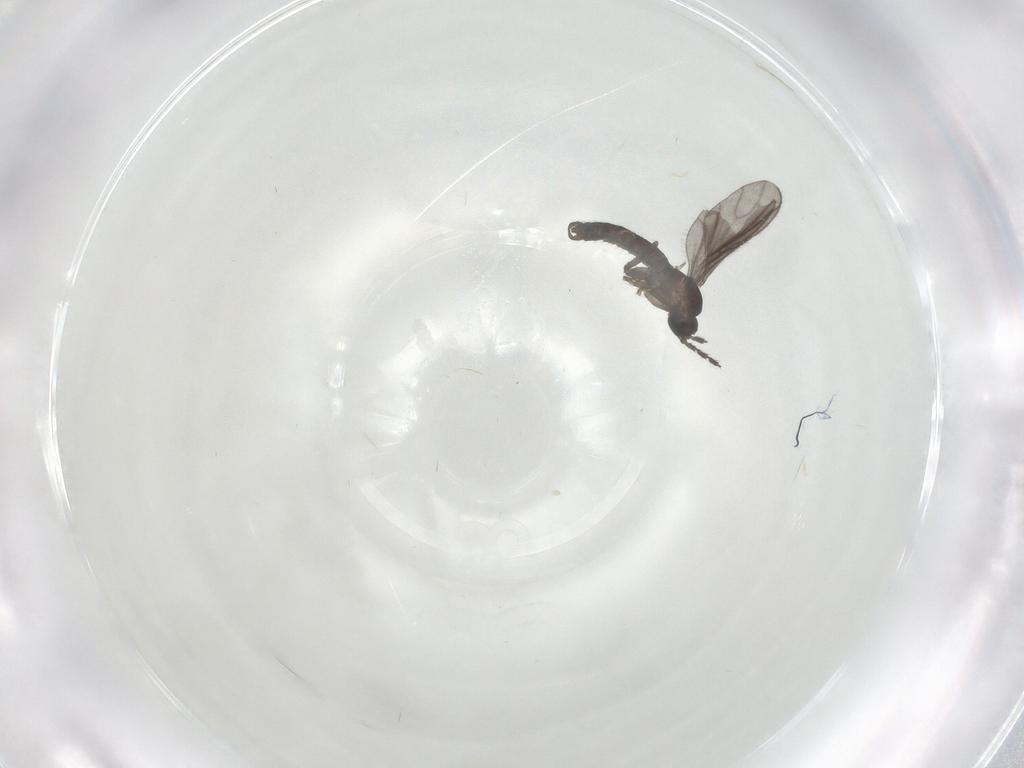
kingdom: Animalia
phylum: Arthropoda
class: Insecta
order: Diptera
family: Sciaridae
